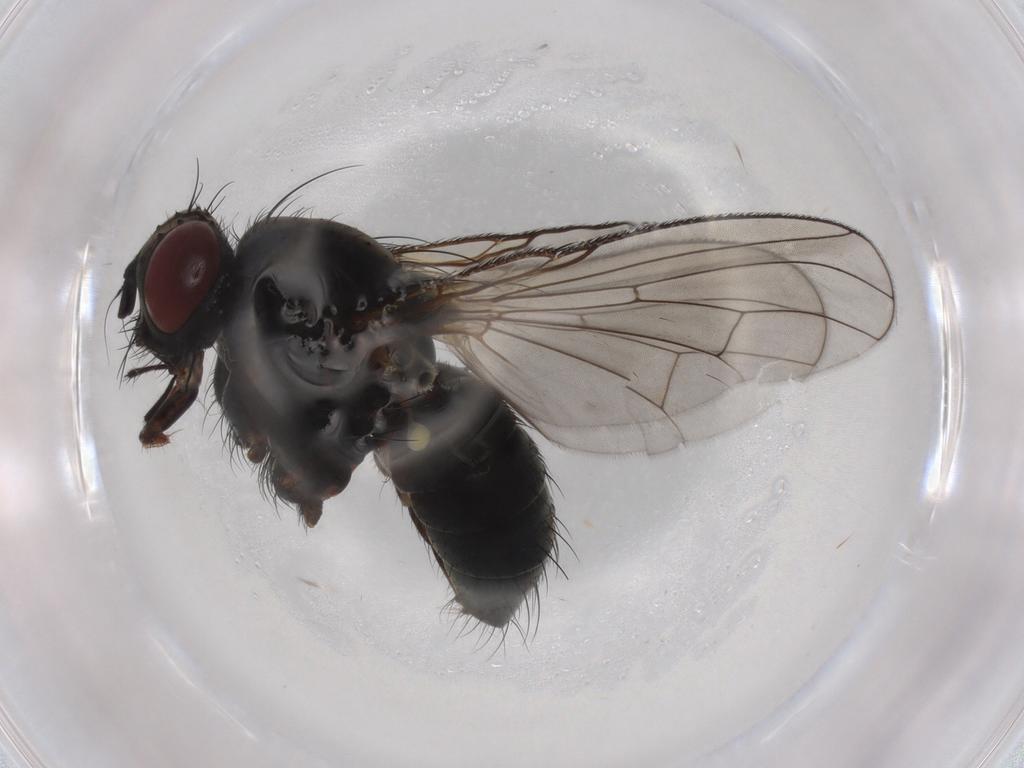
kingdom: Animalia
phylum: Arthropoda
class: Insecta
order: Diptera
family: Muscidae
